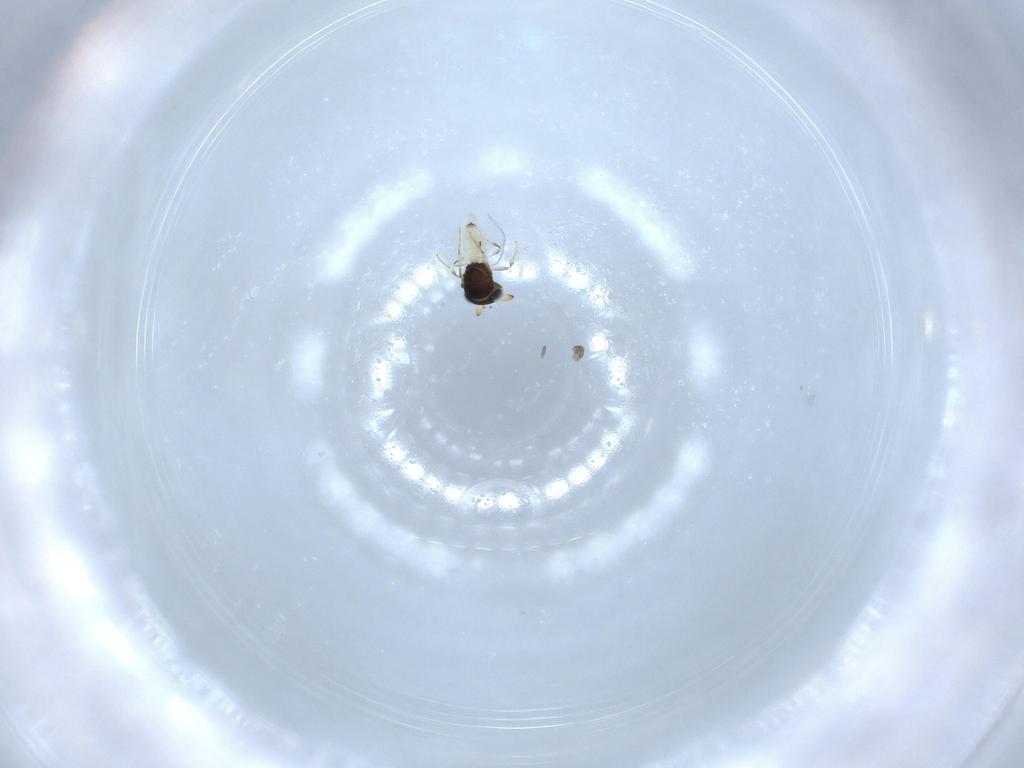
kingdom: Animalia
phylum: Arthropoda
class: Insecta
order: Hymenoptera
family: Scelionidae
